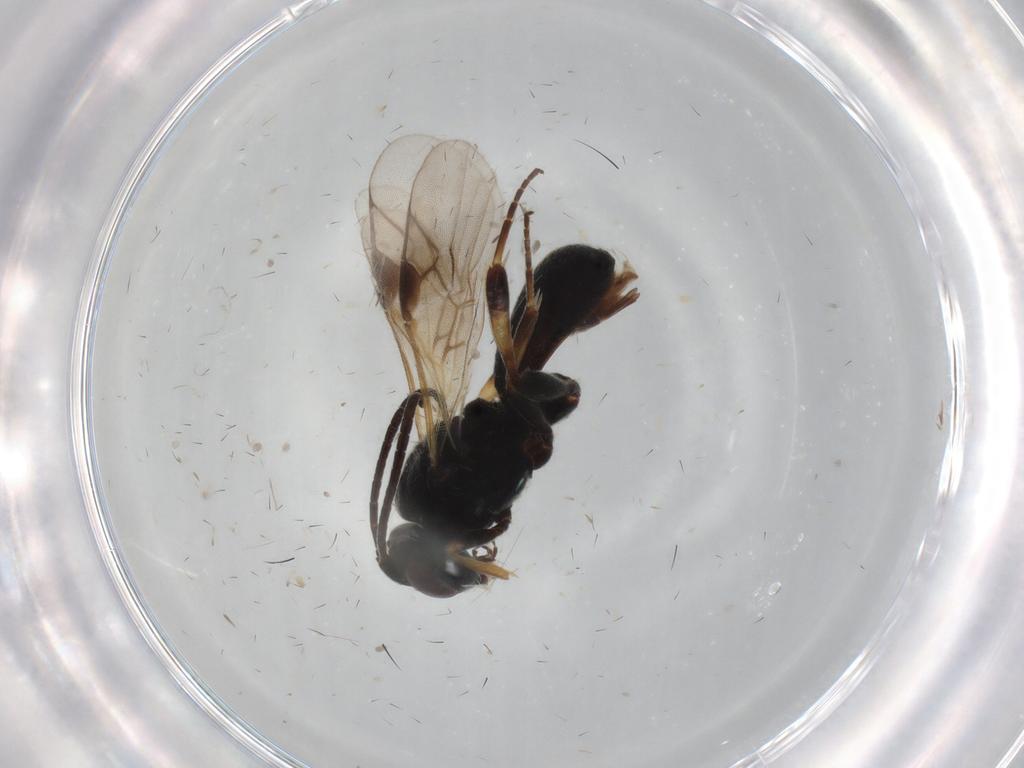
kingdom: Animalia
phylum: Arthropoda
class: Insecta
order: Hymenoptera
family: Braconidae
